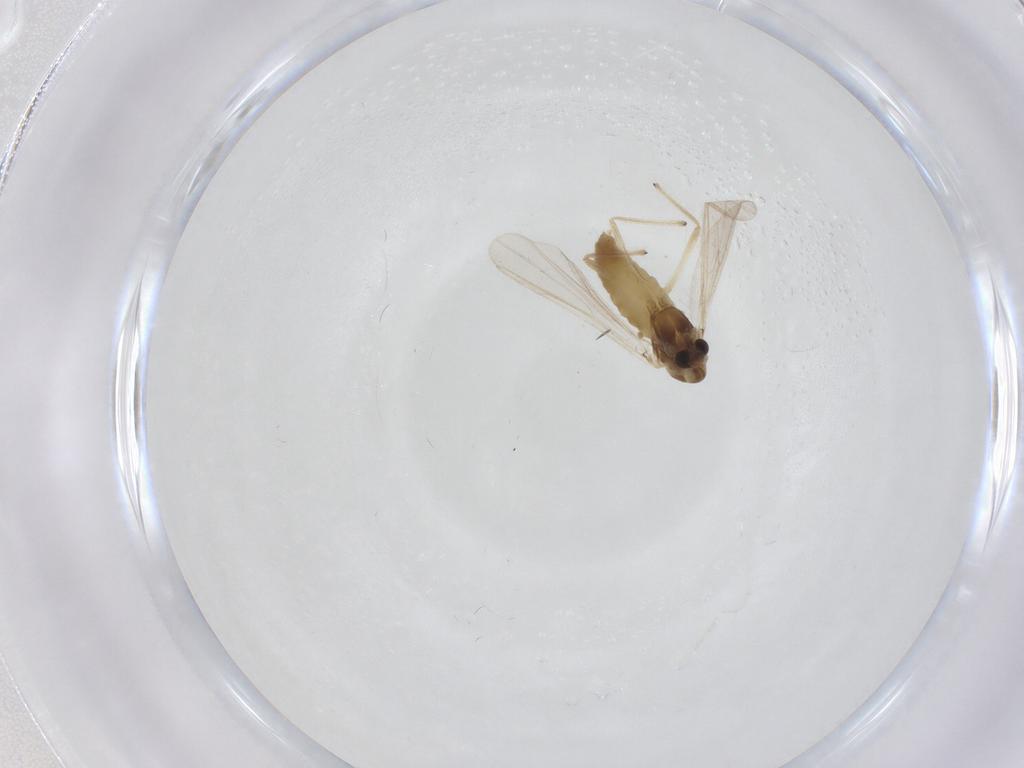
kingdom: Animalia
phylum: Arthropoda
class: Insecta
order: Diptera
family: Chironomidae
